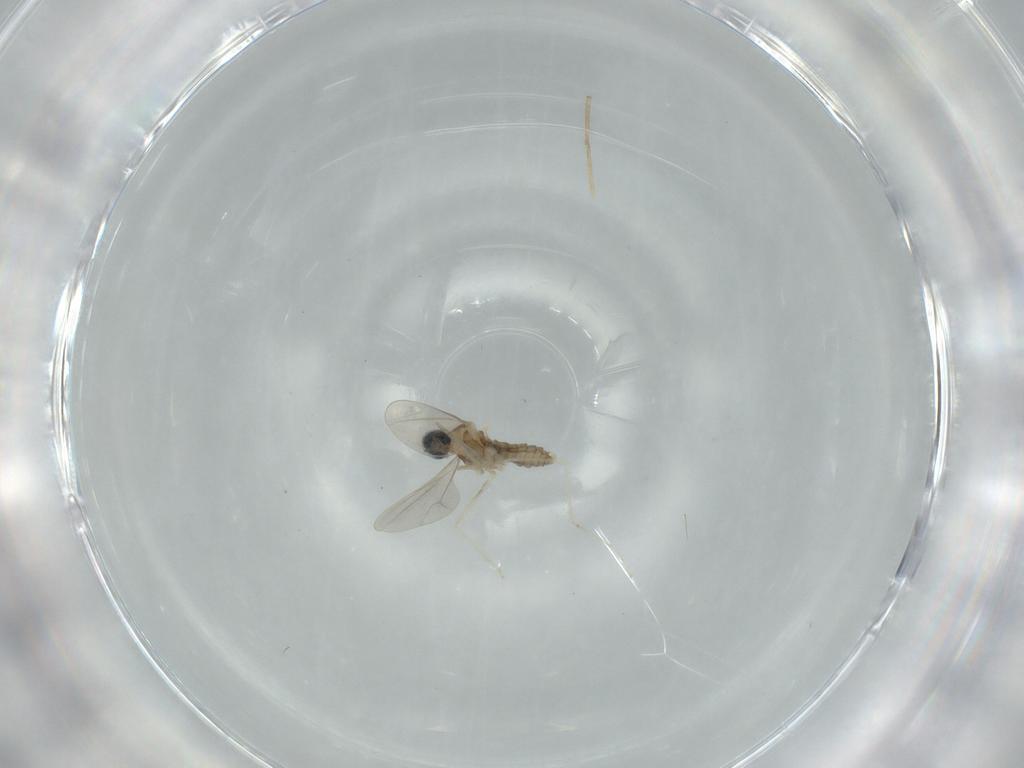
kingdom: Animalia
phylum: Arthropoda
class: Insecta
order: Diptera
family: Cecidomyiidae
